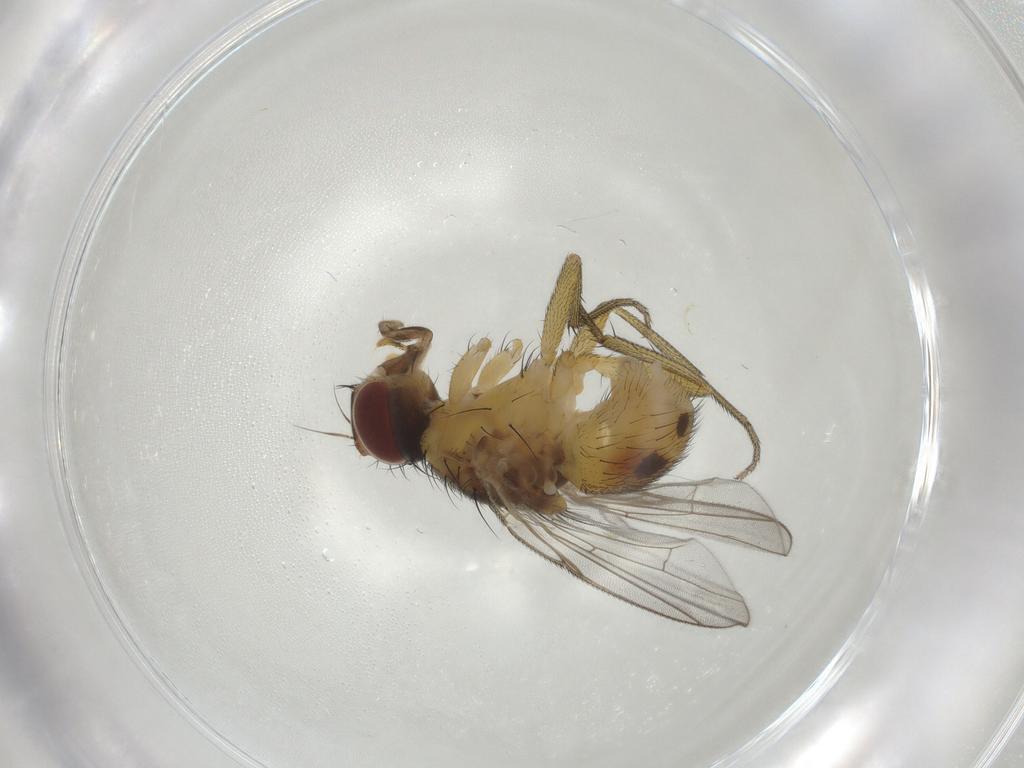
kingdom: Animalia
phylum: Arthropoda
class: Insecta
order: Diptera
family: Muscidae
